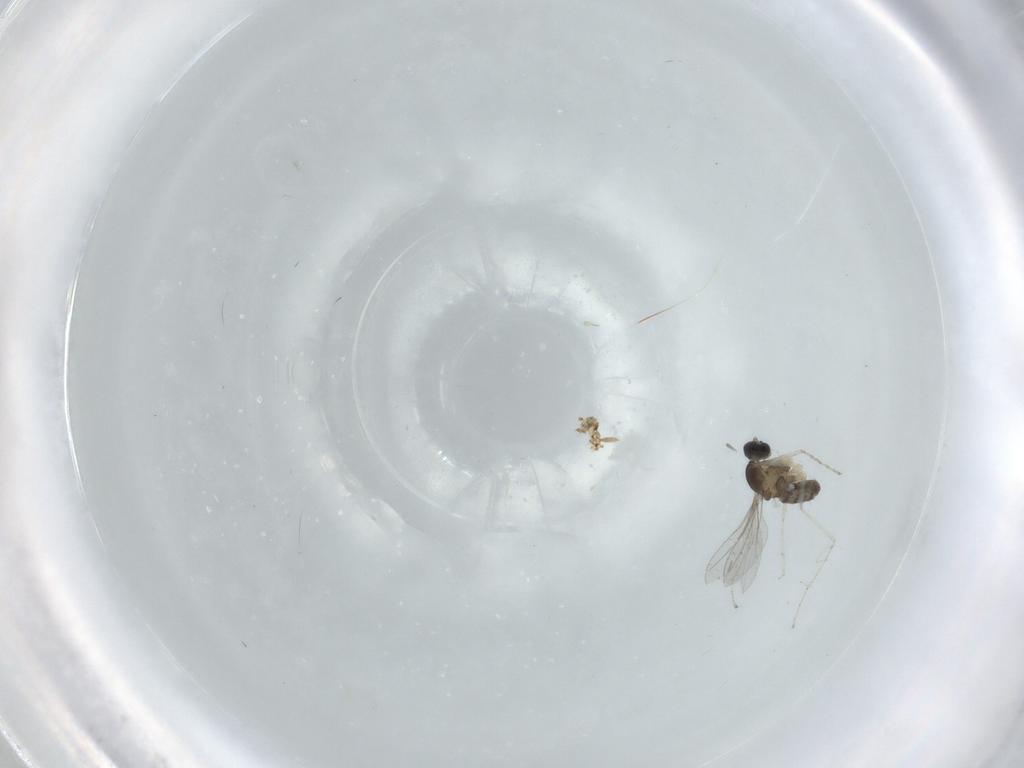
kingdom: Animalia
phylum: Arthropoda
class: Insecta
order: Diptera
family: Cecidomyiidae
